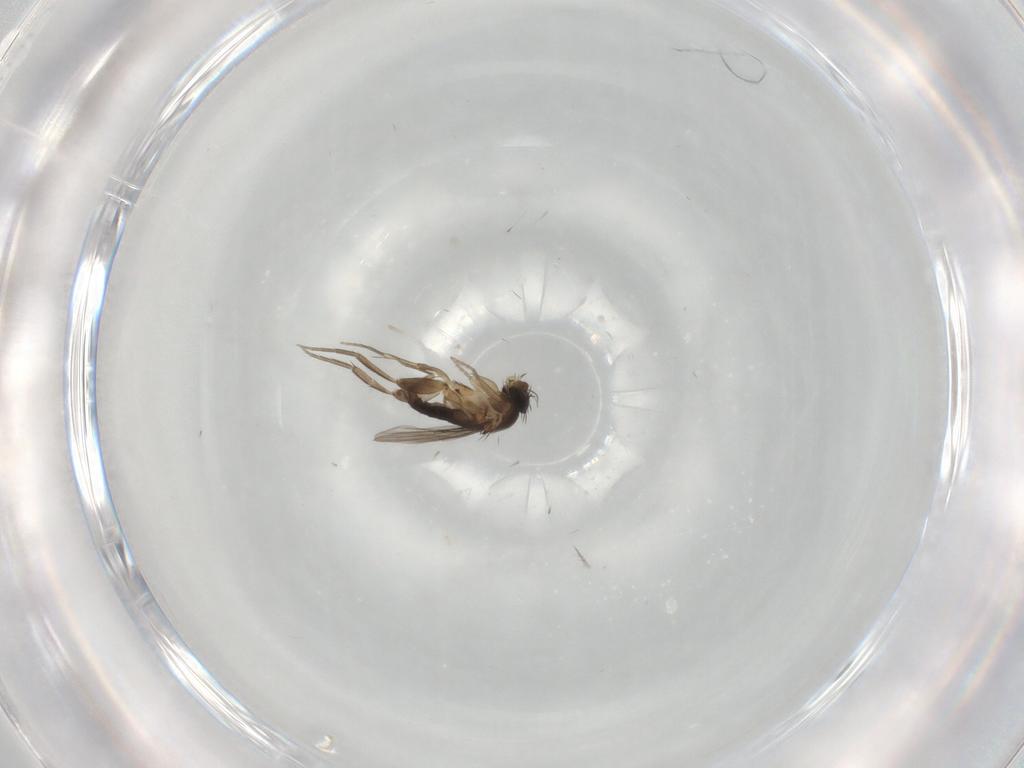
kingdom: Animalia
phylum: Arthropoda
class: Insecta
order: Diptera
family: Phoridae
